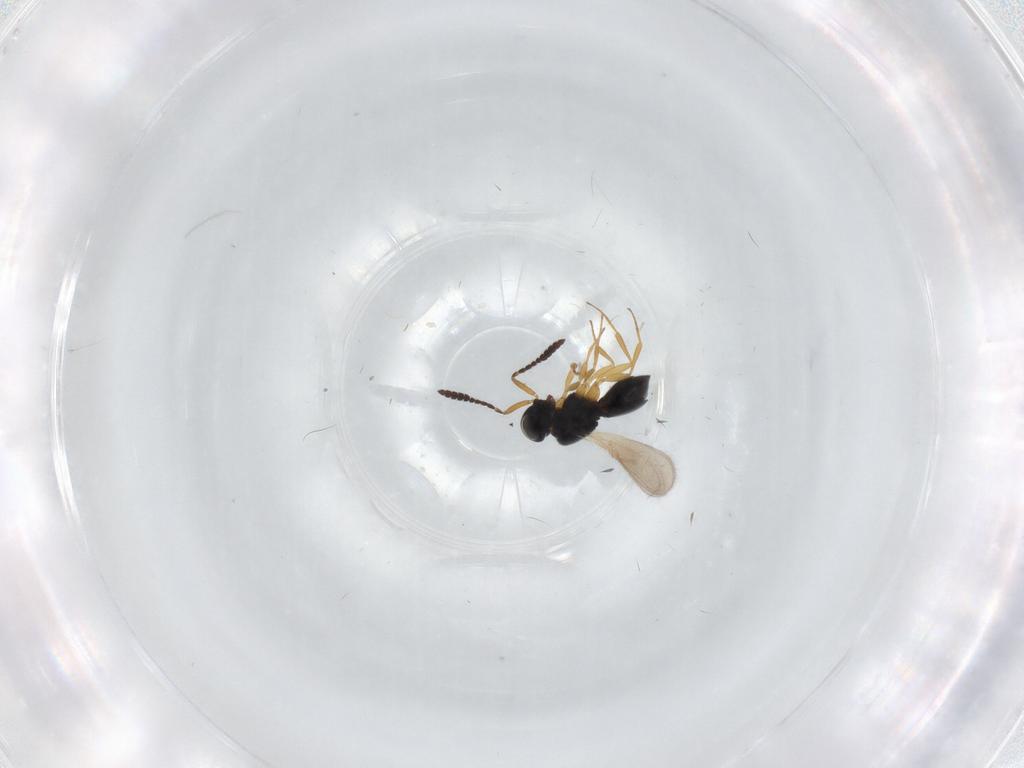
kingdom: Animalia
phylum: Arthropoda
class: Insecta
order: Hymenoptera
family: Scelionidae
